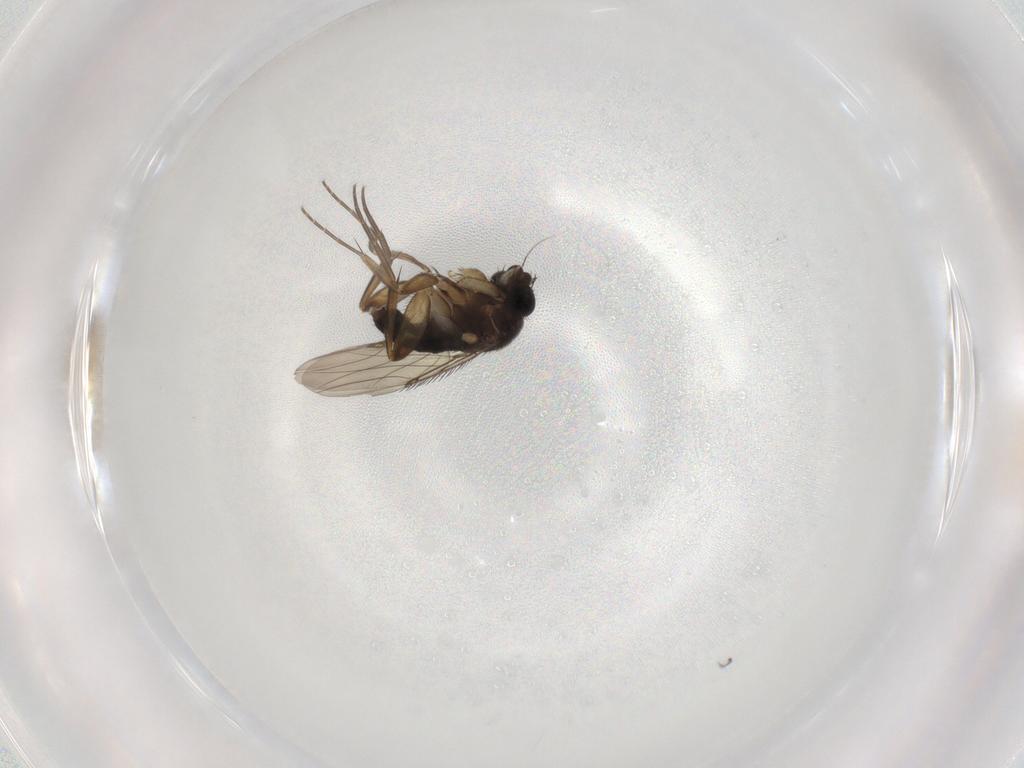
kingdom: Animalia
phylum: Arthropoda
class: Insecta
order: Diptera
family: Phoridae
